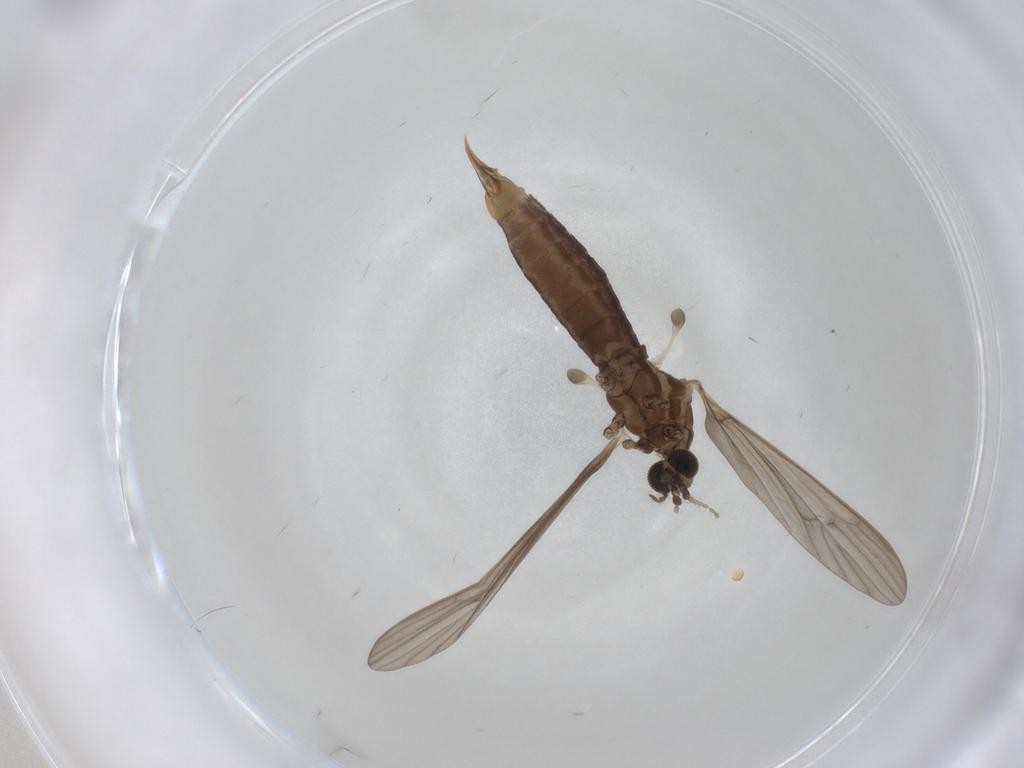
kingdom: Animalia
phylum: Arthropoda
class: Insecta
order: Diptera
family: Limoniidae
